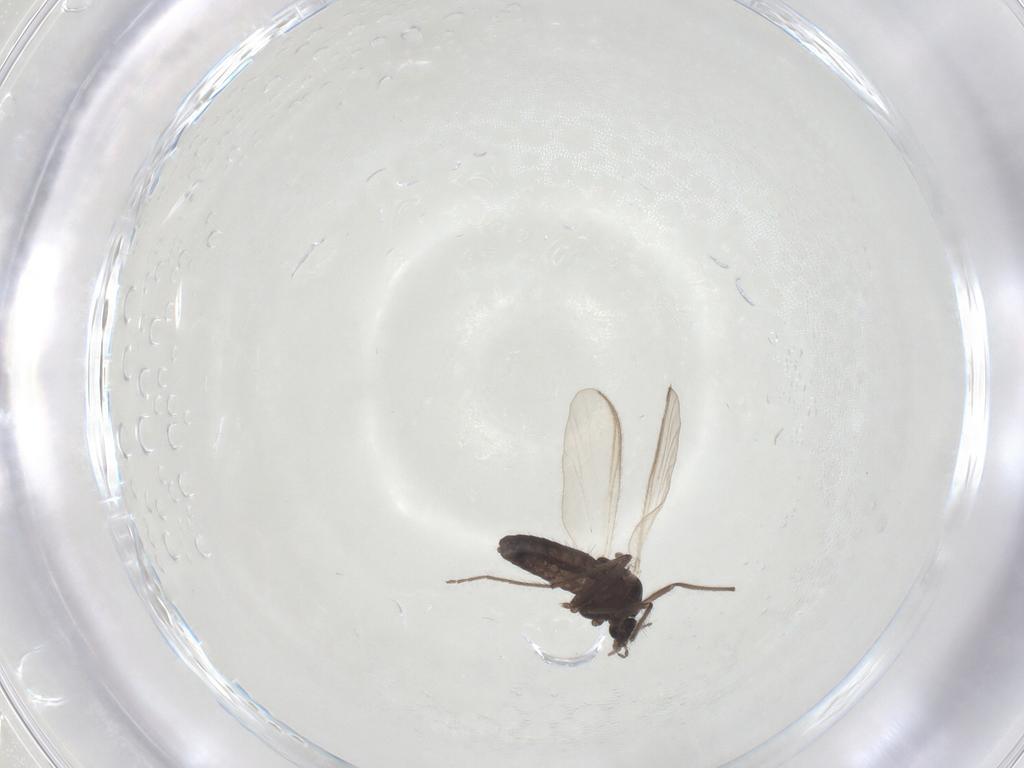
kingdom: Animalia
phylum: Arthropoda
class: Insecta
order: Diptera
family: Chironomidae
